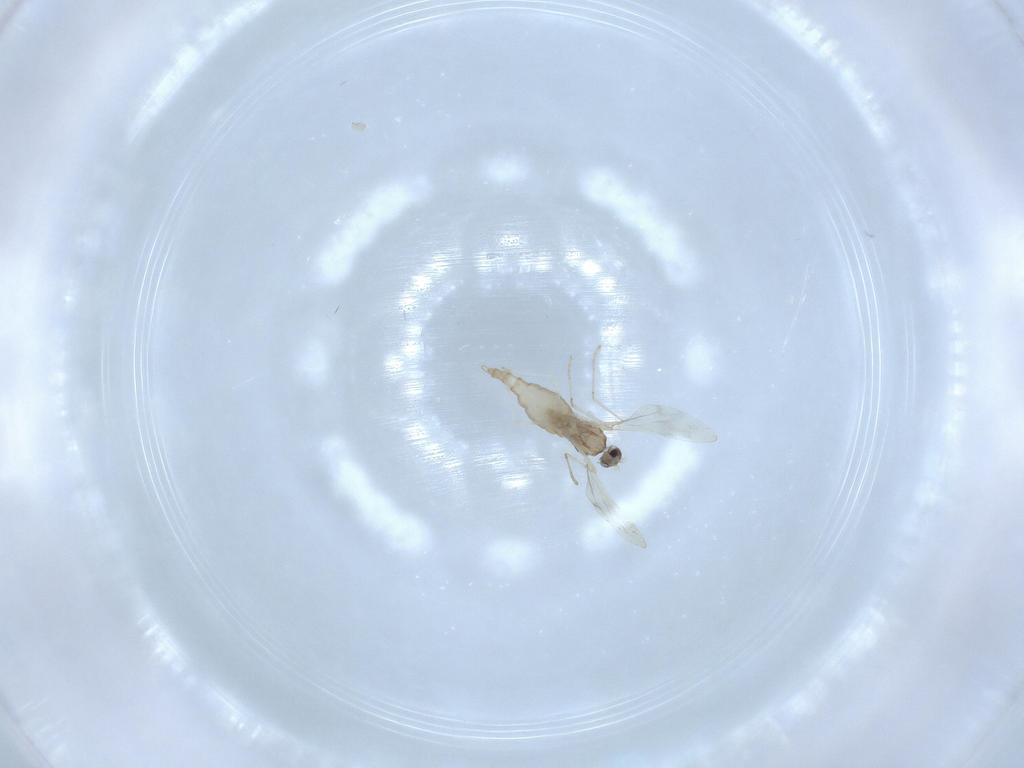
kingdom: Animalia
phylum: Arthropoda
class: Insecta
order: Diptera
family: Cecidomyiidae
